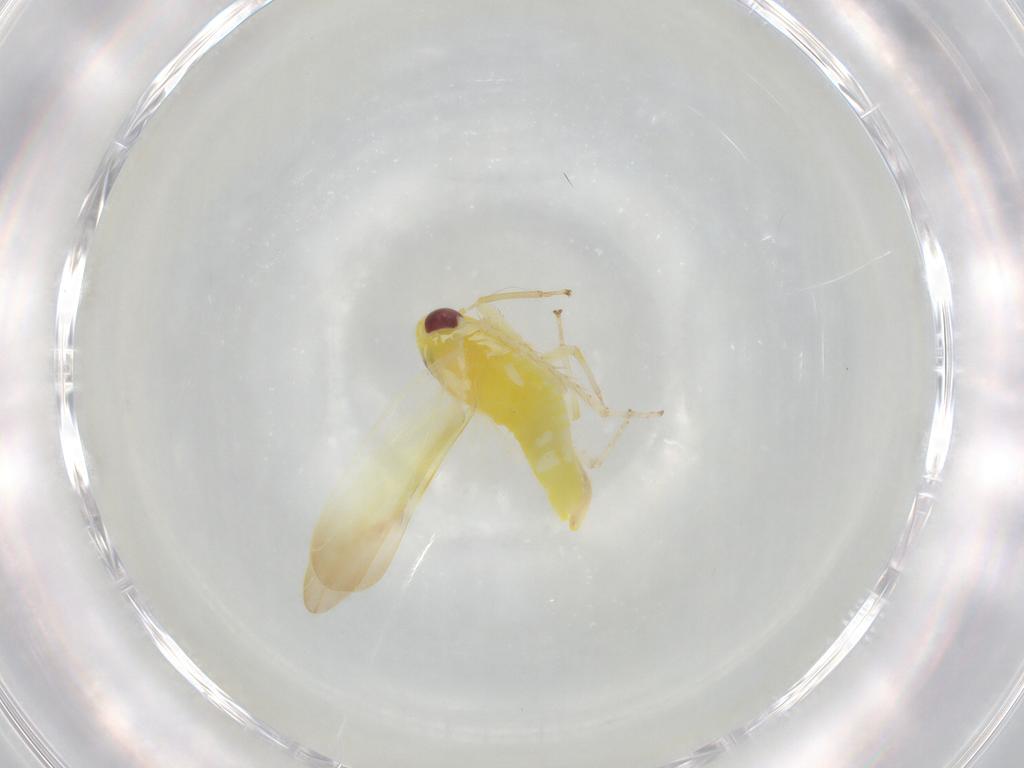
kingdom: Animalia
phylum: Arthropoda
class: Insecta
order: Hemiptera
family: Cicadellidae
